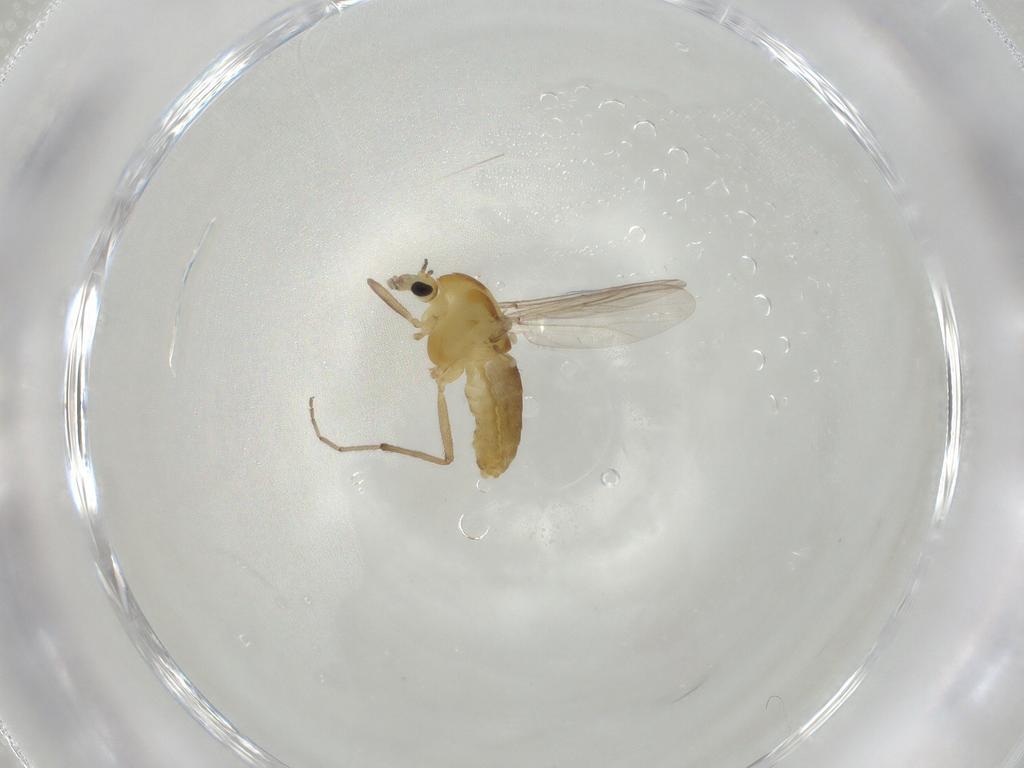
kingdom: Animalia
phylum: Arthropoda
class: Insecta
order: Diptera
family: Chironomidae
